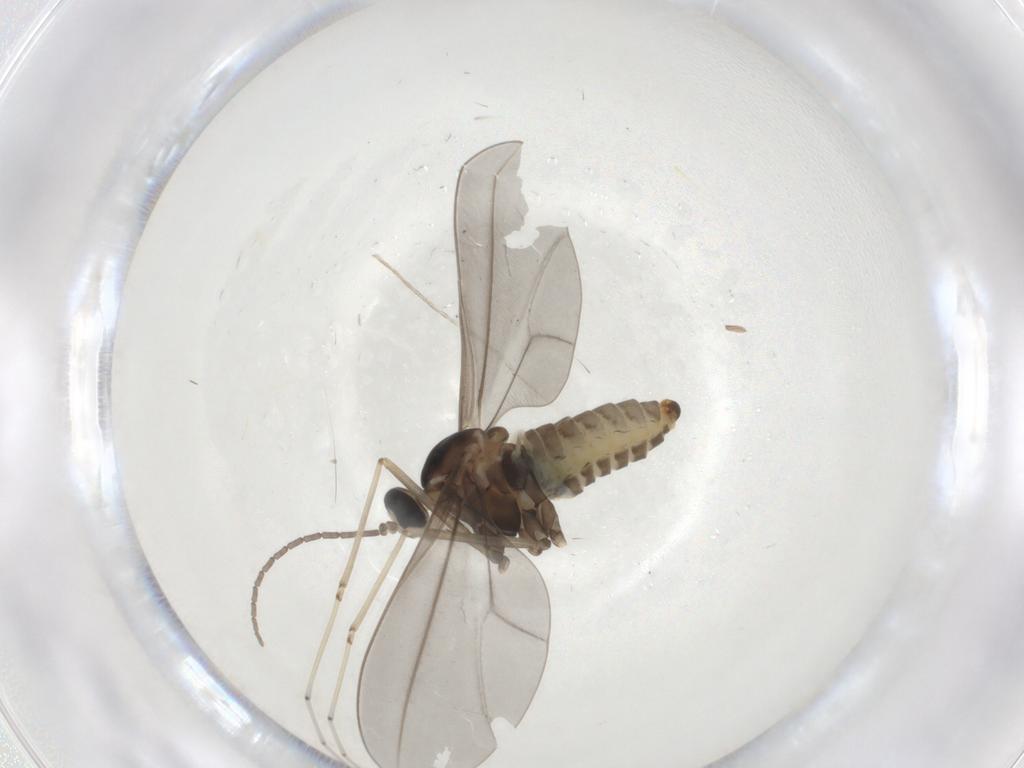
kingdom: Animalia
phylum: Arthropoda
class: Insecta
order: Diptera
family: Cecidomyiidae
